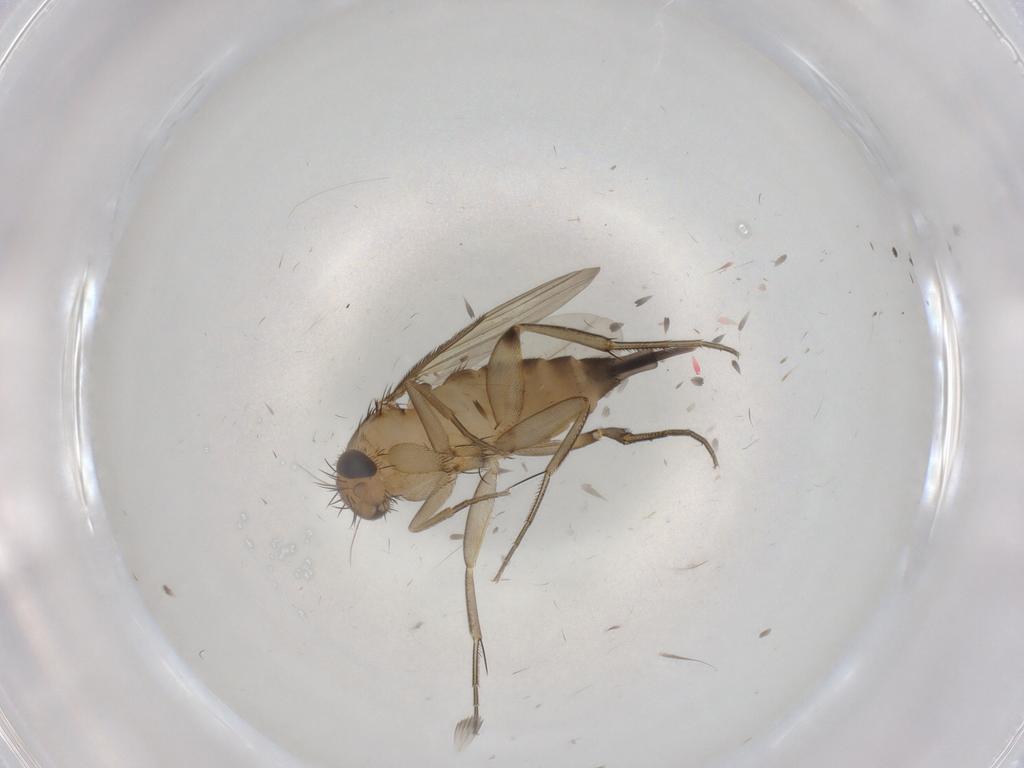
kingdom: Animalia
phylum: Arthropoda
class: Insecta
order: Diptera
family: Phoridae
